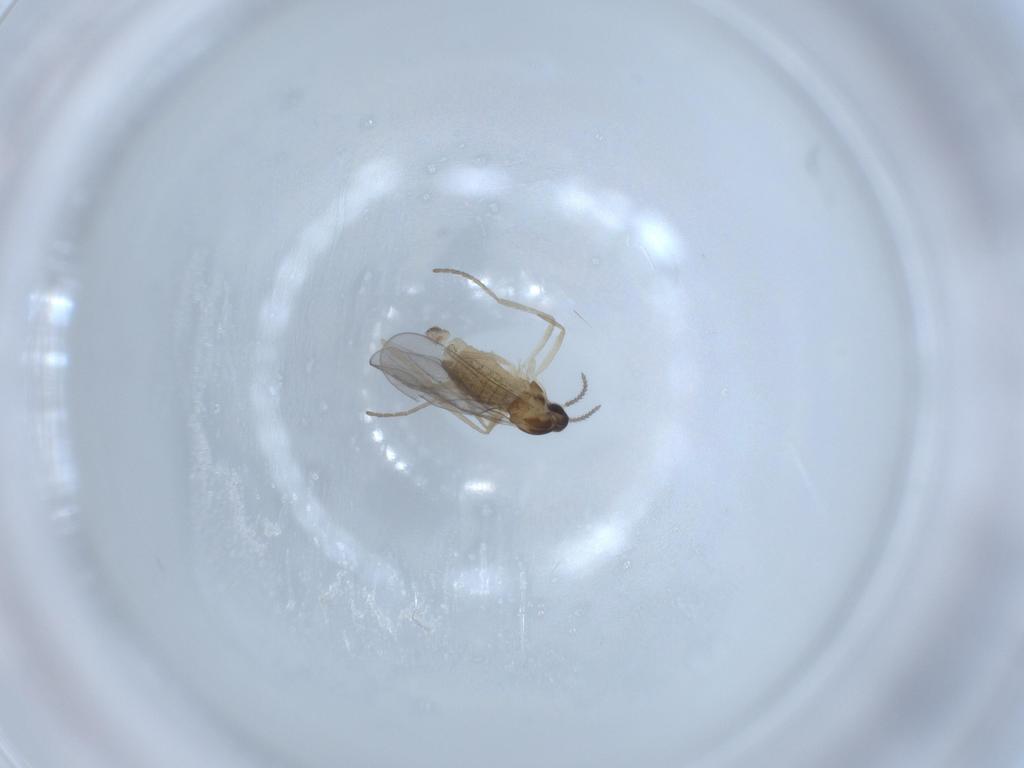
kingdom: Animalia
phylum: Arthropoda
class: Insecta
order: Diptera
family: Cecidomyiidae
